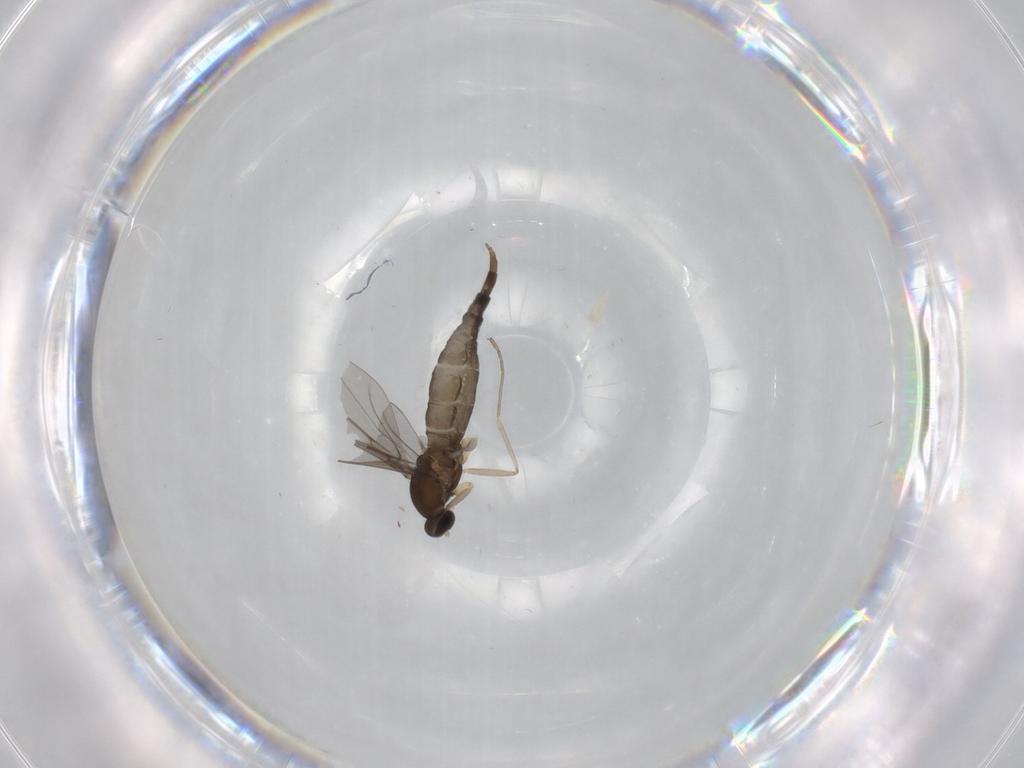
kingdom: Animalia
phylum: Arthropoda
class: Insecta
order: Diptera
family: Cecidomyiidae
